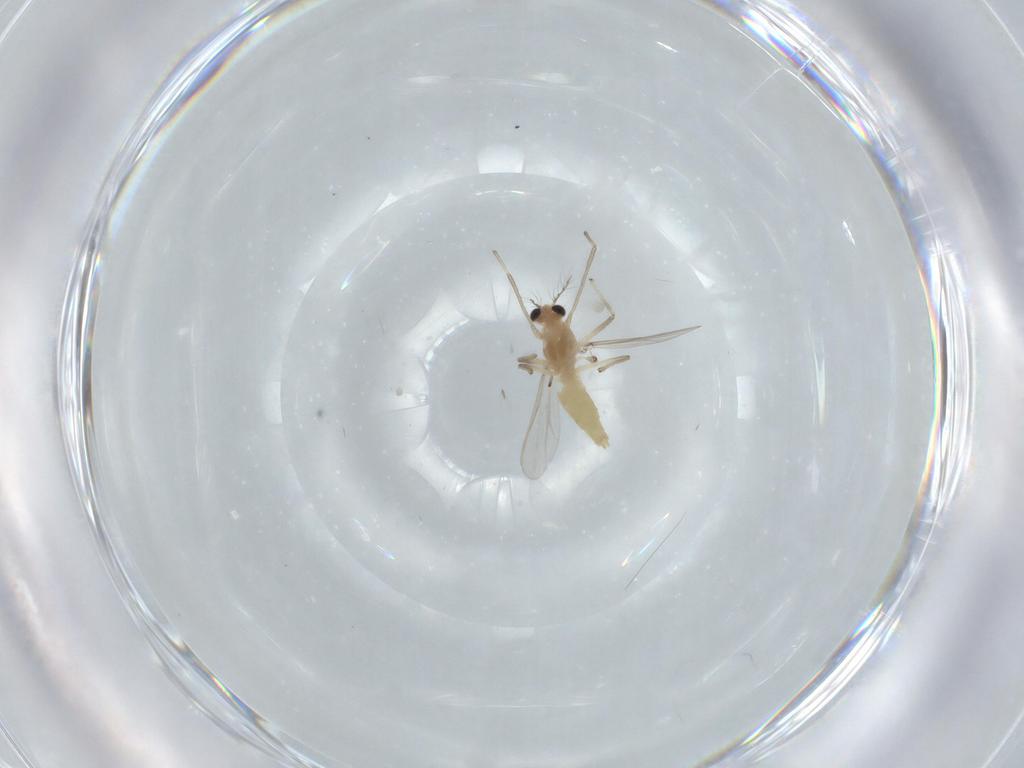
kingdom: Animalia
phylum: Arthropoda
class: Insecta
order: Diptera
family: Chironomidae
